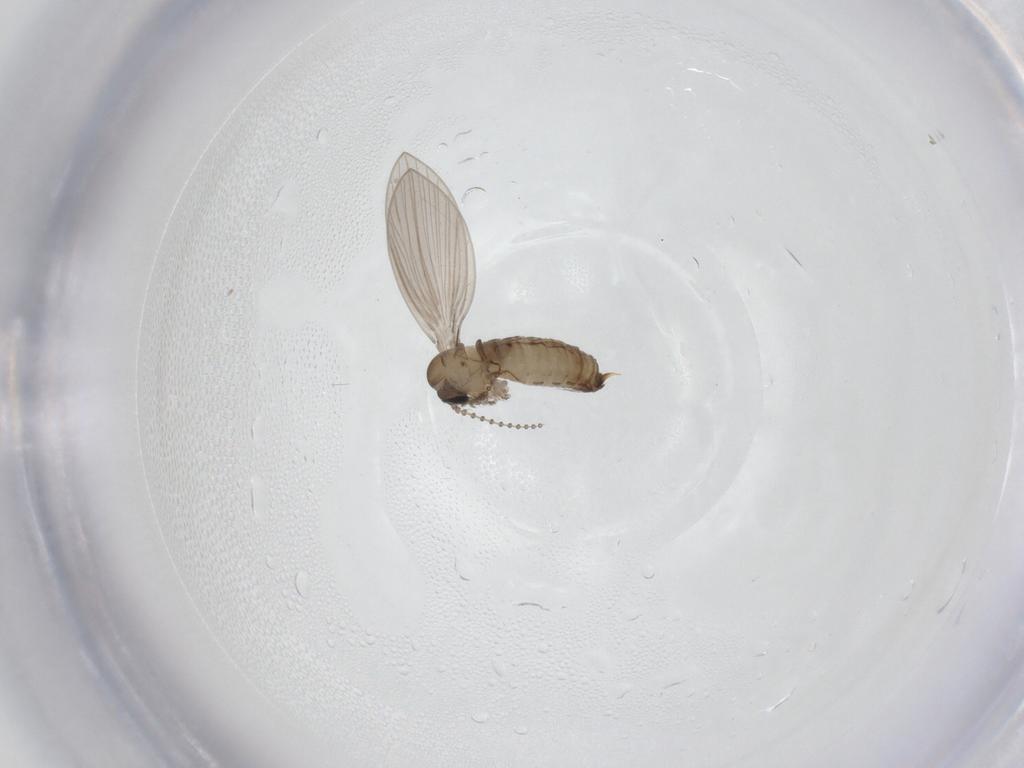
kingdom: Animalia
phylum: Arthropoda
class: Insecta
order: Diptera
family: Psychodidae
